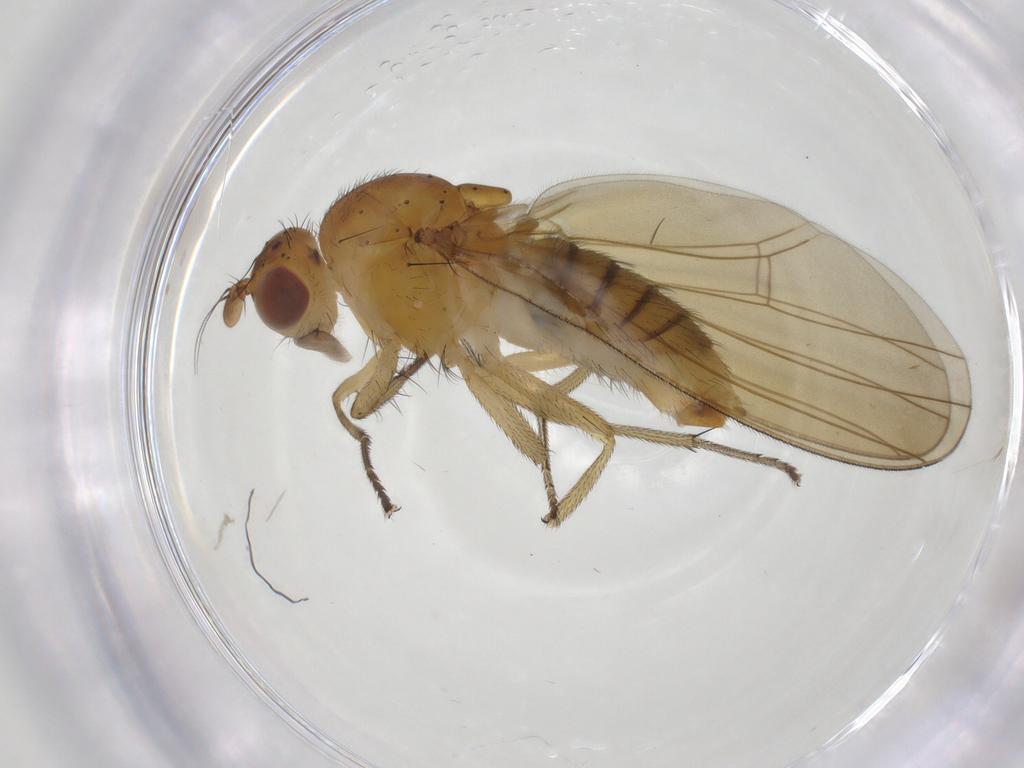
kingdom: Animalia
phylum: Arthropoda
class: Insecta
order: Diptera
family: Lauxaniidae
